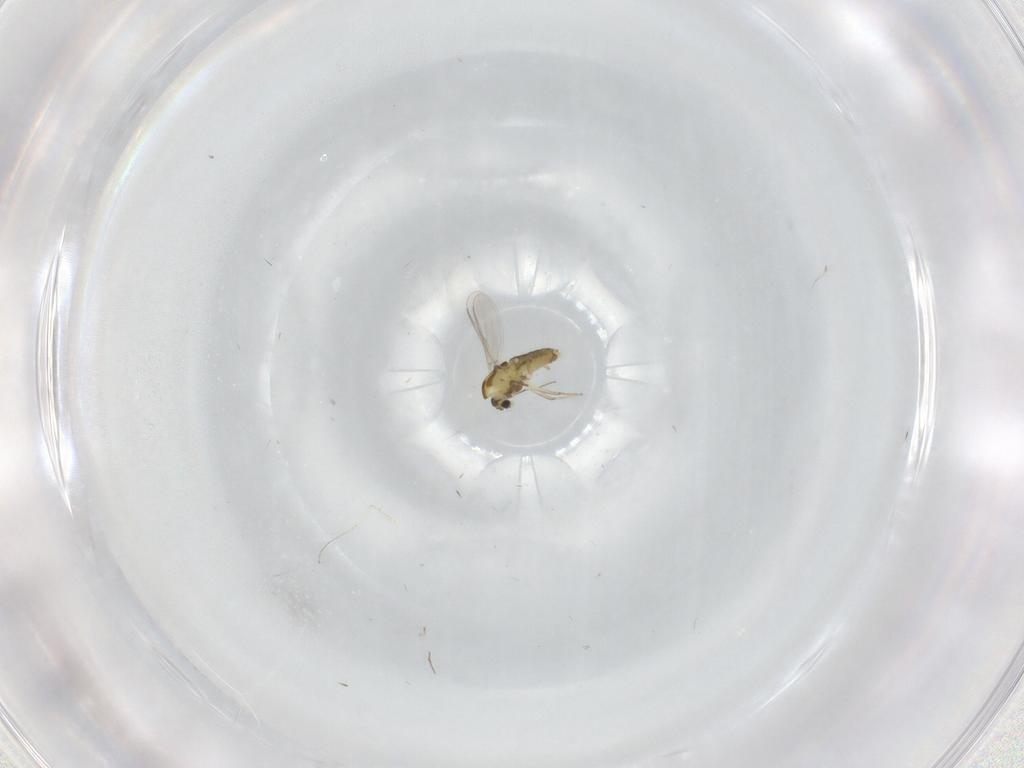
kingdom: Animalia
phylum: Arthropoda
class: Insecta
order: Diptera
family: Chironomidae
